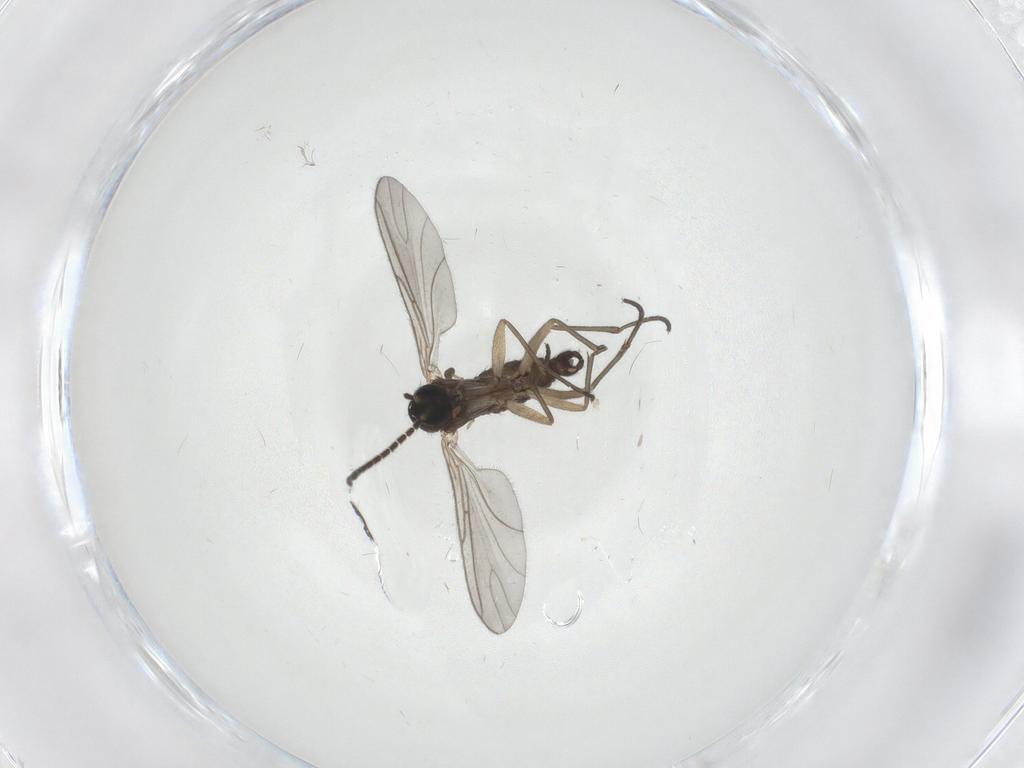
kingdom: Animalia
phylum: Arthropoda
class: Insecta
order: Diptera
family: Sciaridae
